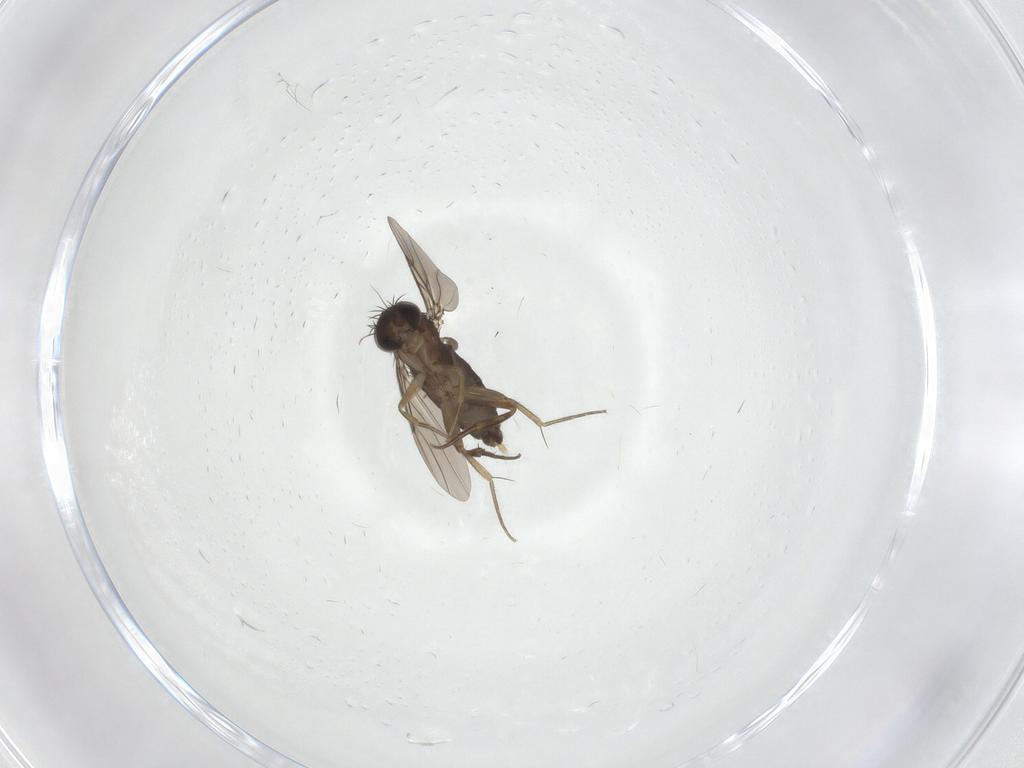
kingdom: Animalia
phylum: Arthropoda
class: Insecta
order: Diptera
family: Phoridae
